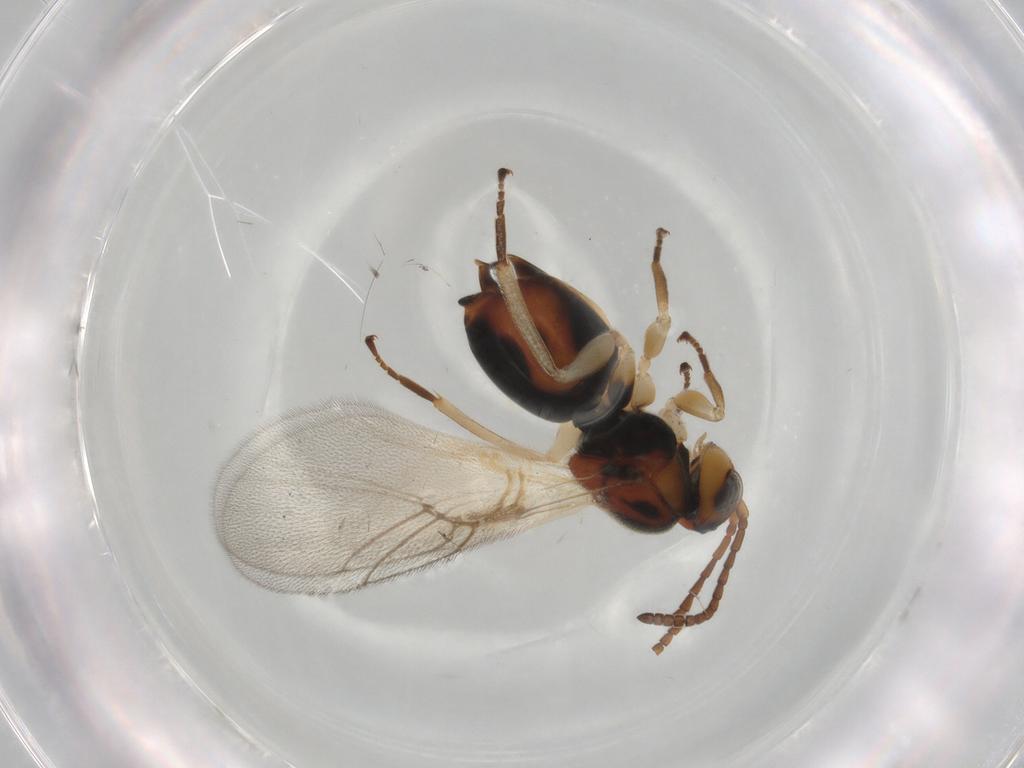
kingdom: Animalia
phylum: Arthropoda
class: Insecta
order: Hymenoptera
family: Cynipidae
